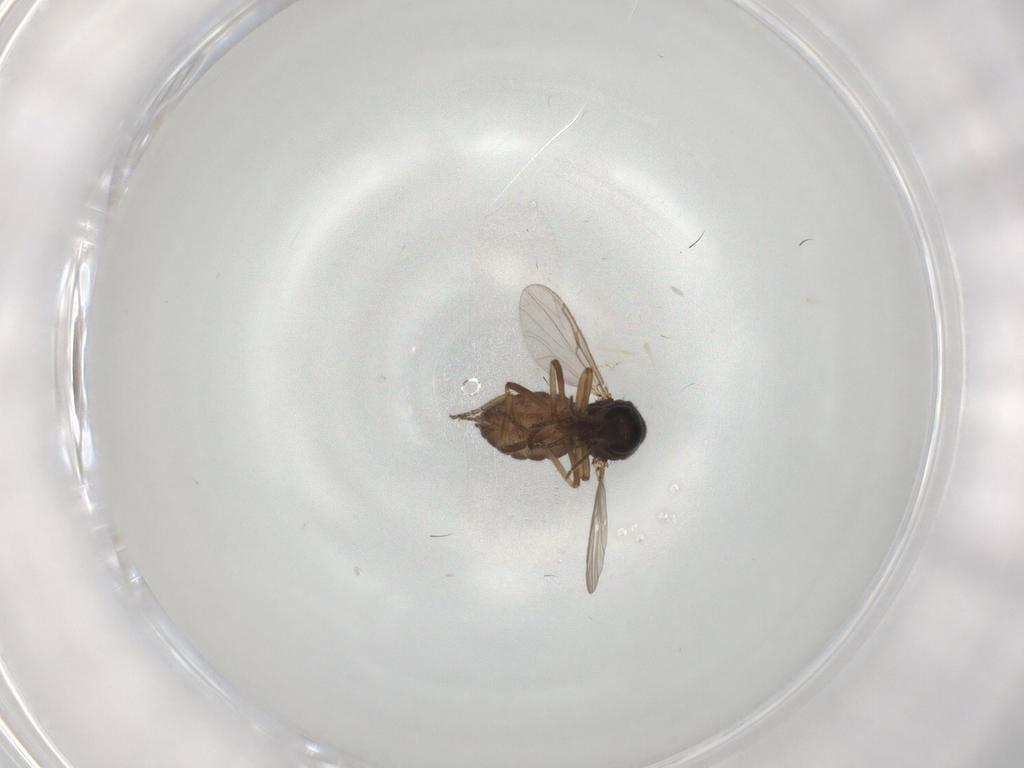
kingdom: Animalia
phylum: Arthropoda
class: Insecta
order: Diptera
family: Ceratopogonidae
